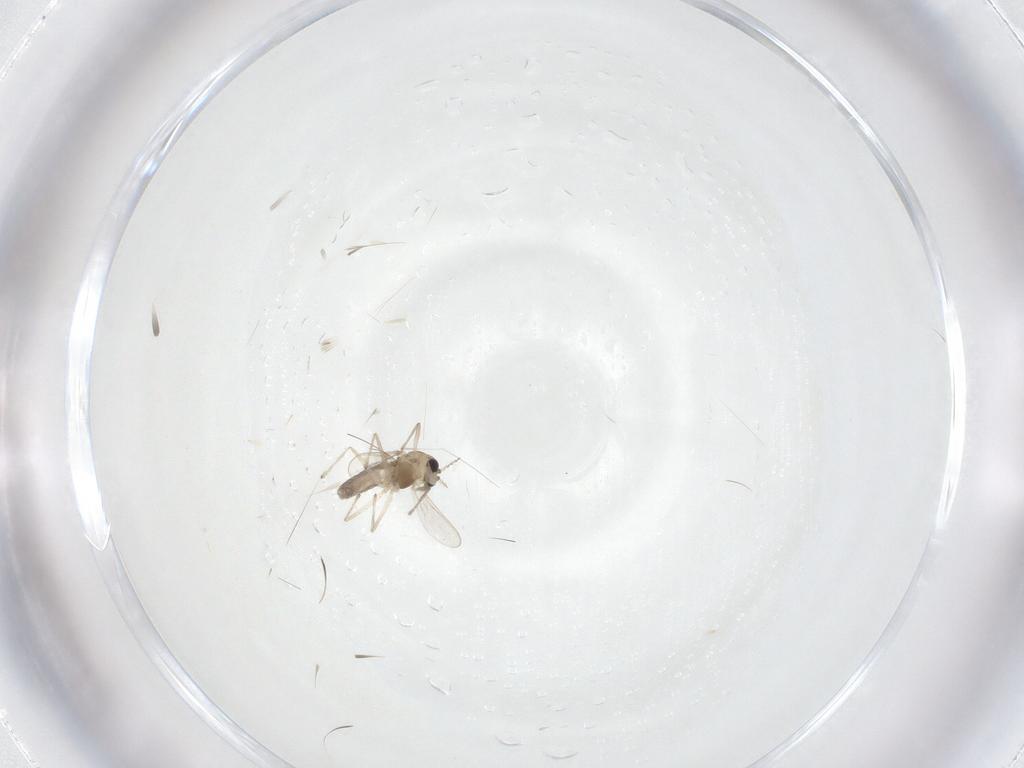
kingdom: Animalia
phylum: Arthropoda
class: Insecta
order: Diptera
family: Chironomidae
